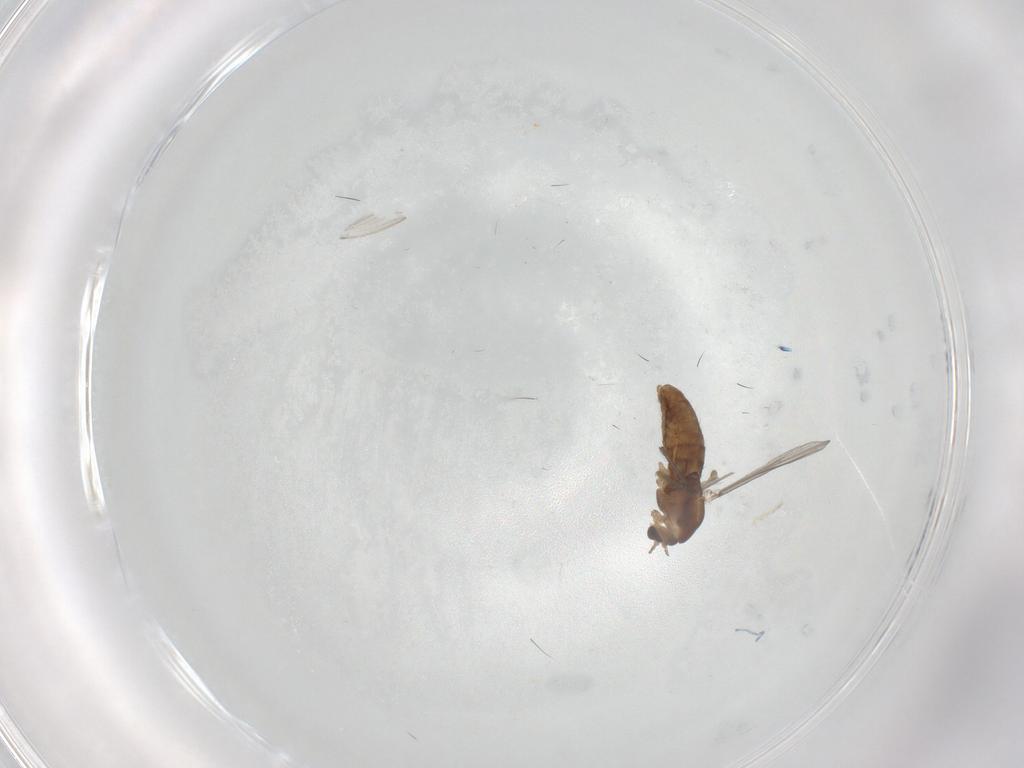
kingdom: Animalia
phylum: Arthropoda
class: Insecta
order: Diptera
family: Chironomidae
